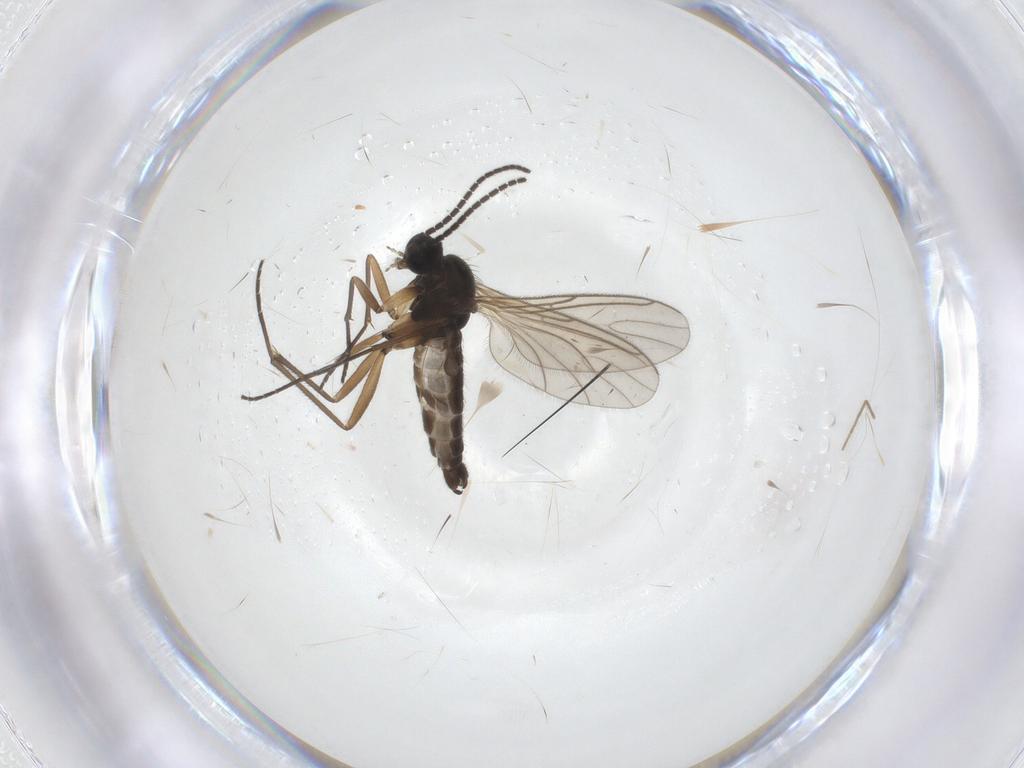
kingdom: Animalia
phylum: Arthropoda
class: Insecta
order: Diptera
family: Sciaridae
